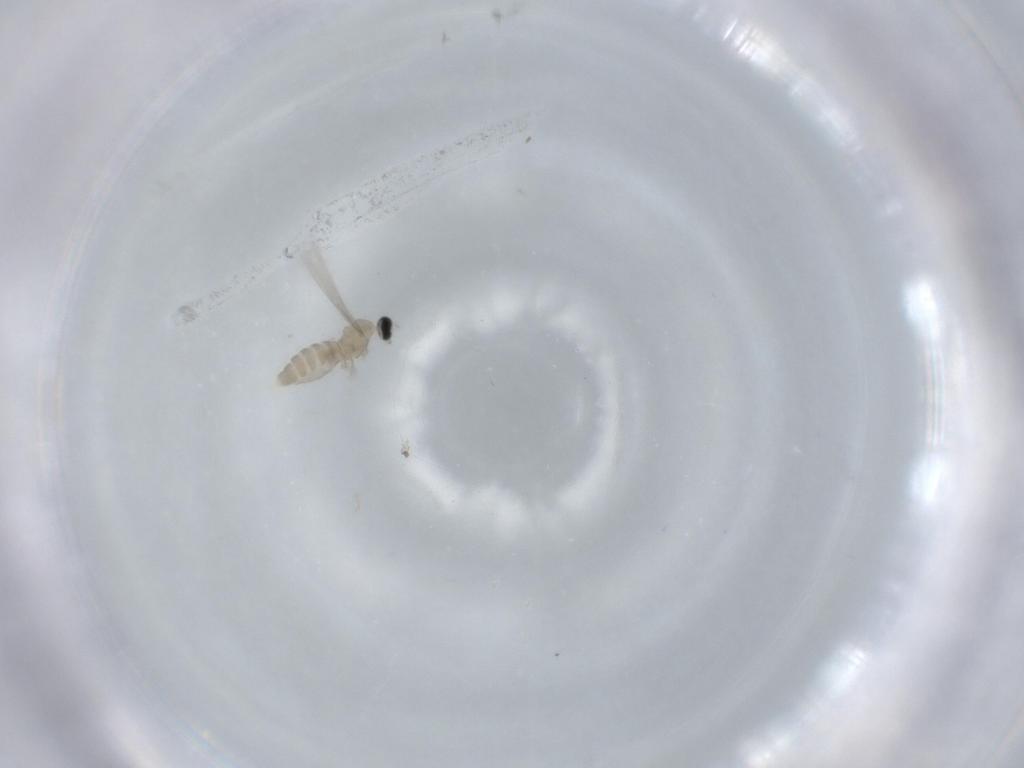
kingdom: Animalia
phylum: Arthropoda
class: Insecta
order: Diptera
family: Cecidomyiidae
